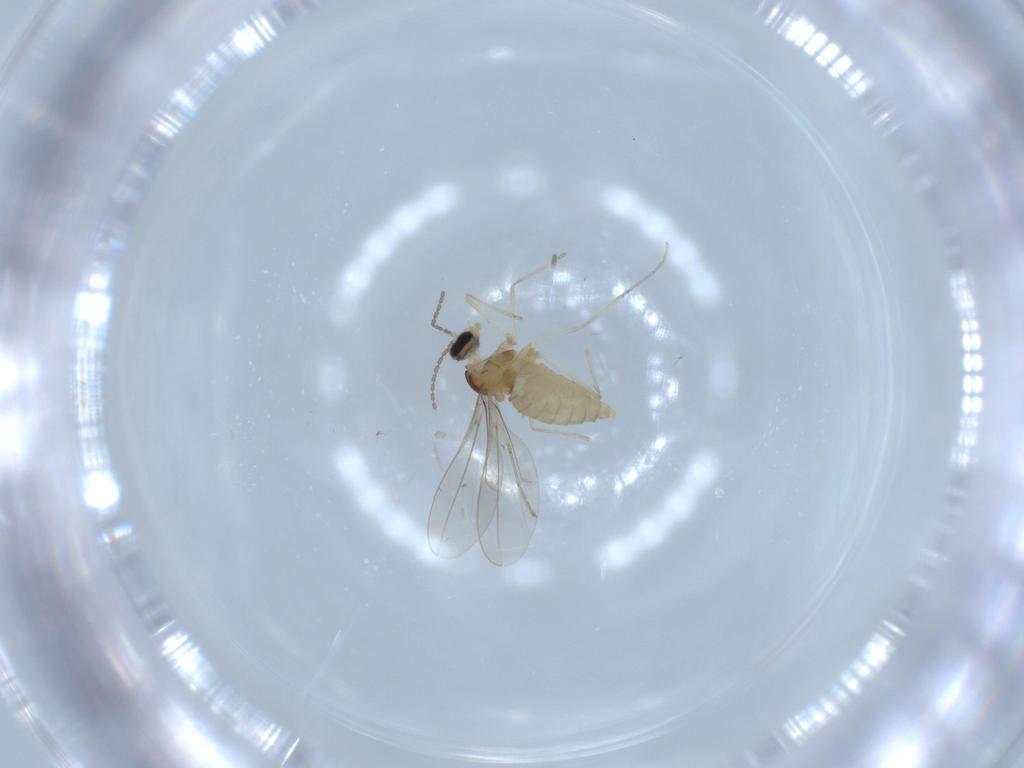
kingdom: Animalia
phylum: Arthropoda
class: Insecta
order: Diptera
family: Cecidomyiidae
